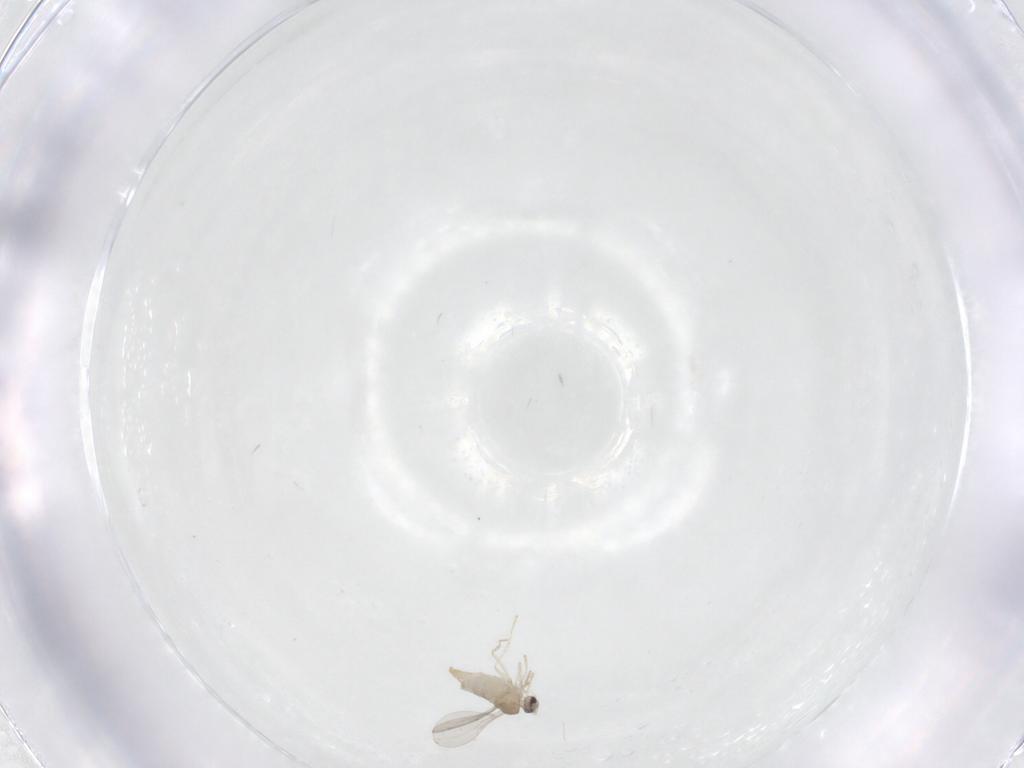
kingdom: Animalia
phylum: Arthropoda
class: Insecta
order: Diptera
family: Cecidomyiidae
